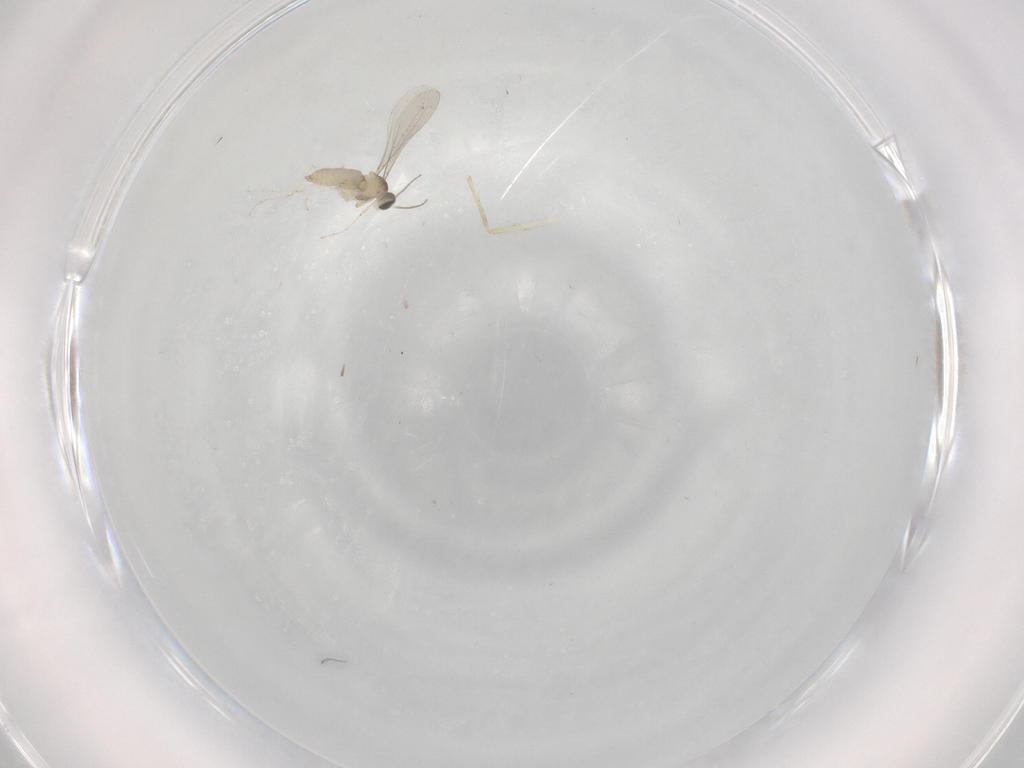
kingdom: Animalia
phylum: Arthropoda
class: Insecta
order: Diptera
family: Cecidomyiidae
